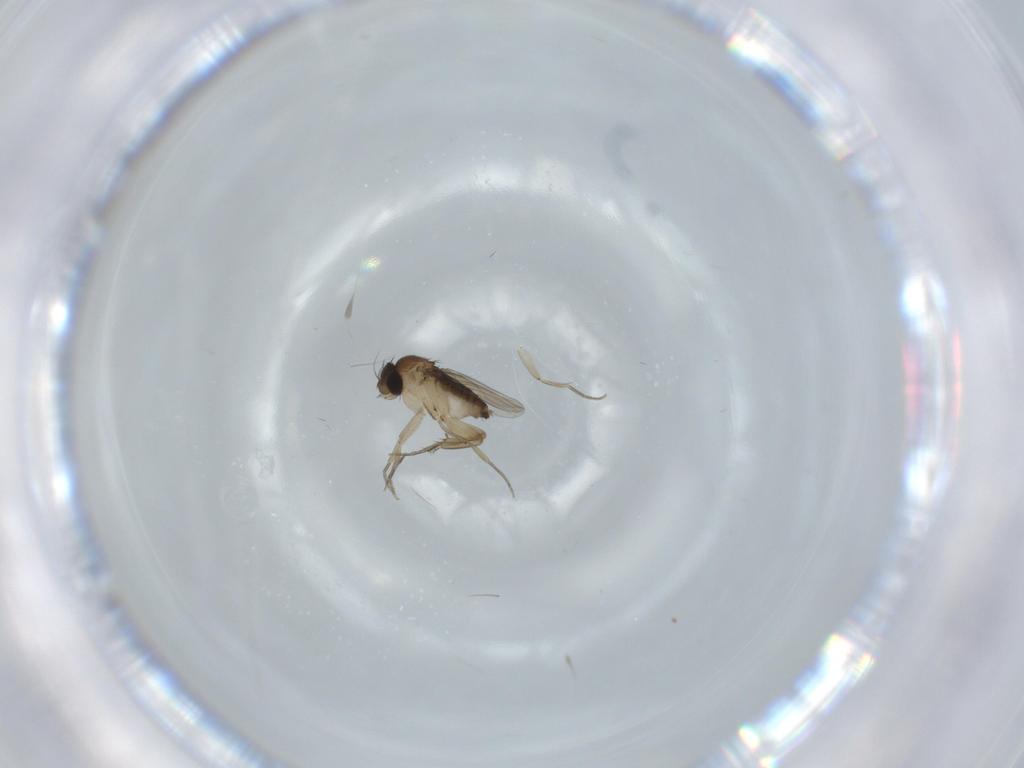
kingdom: Animalia
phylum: Arthropoda
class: Insecta
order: Diptera
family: Phoridae
